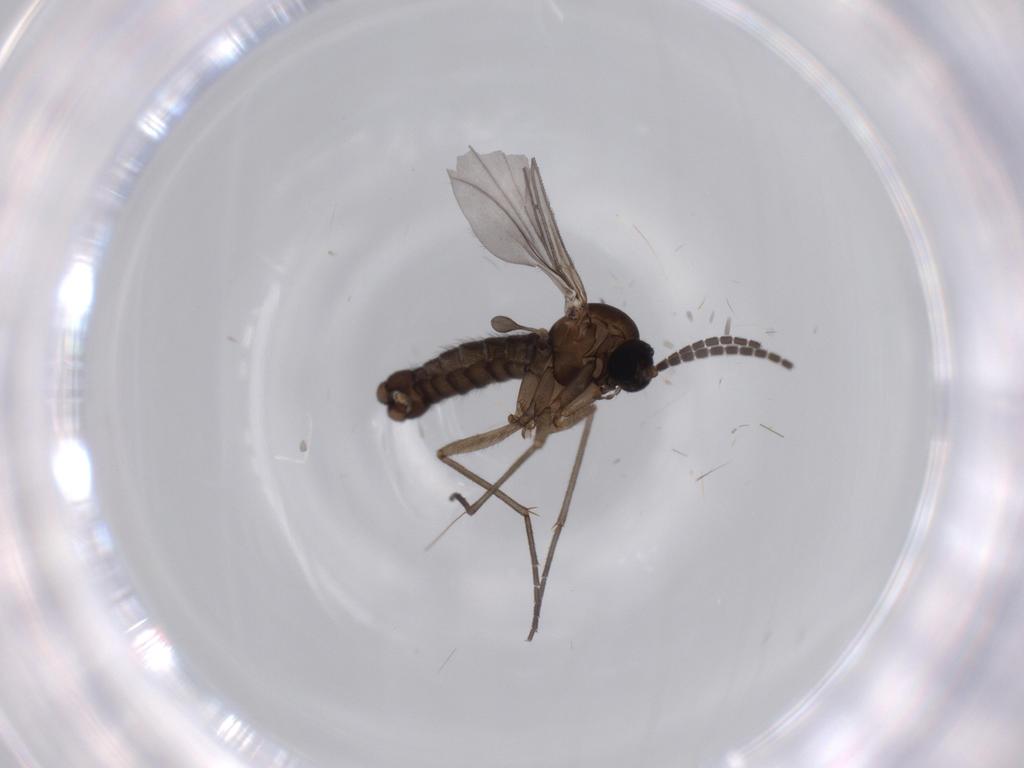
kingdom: Animalia
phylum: Arthropoda
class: Insecta
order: Diptera
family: Sciaridae
